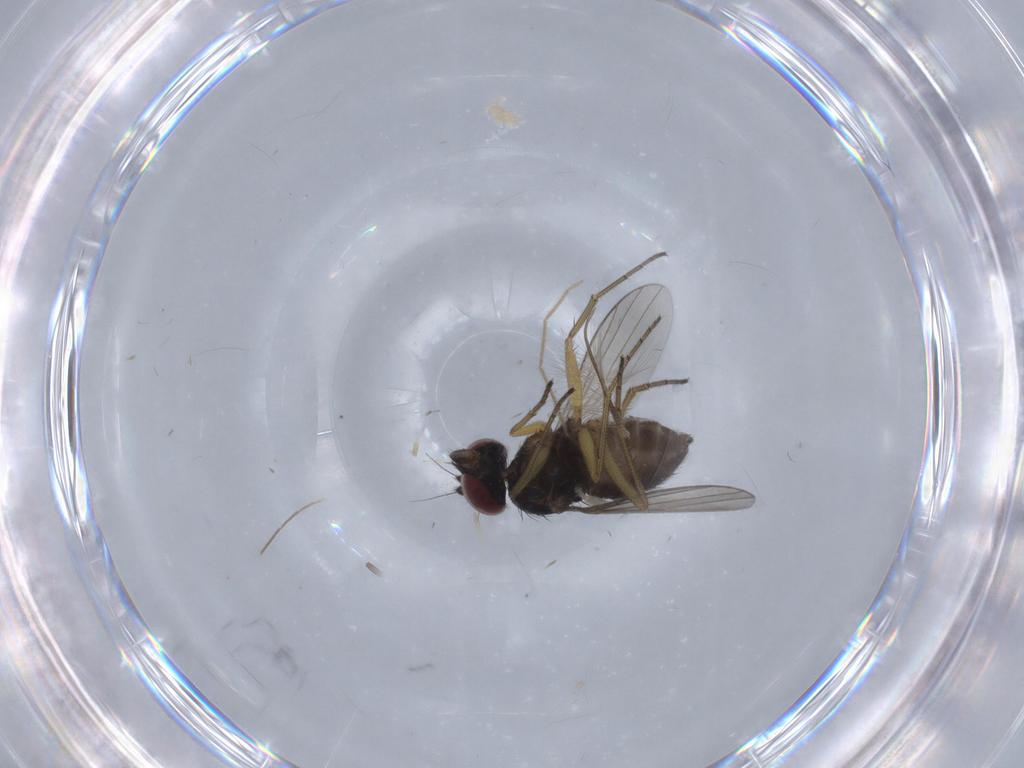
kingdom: Animalia
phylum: Arthropoda
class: Insecta
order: Diptera
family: Dolichopodidae
